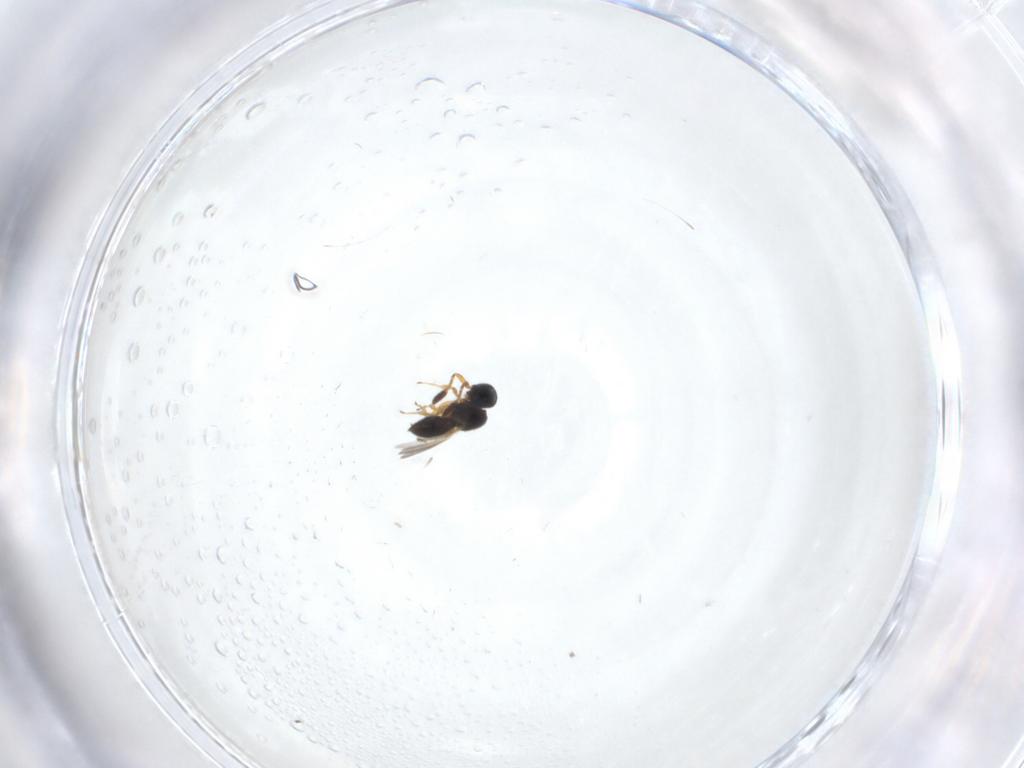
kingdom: Animalia
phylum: Arthropoda
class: Insecta
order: Hymenoptera
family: Scelionidae
